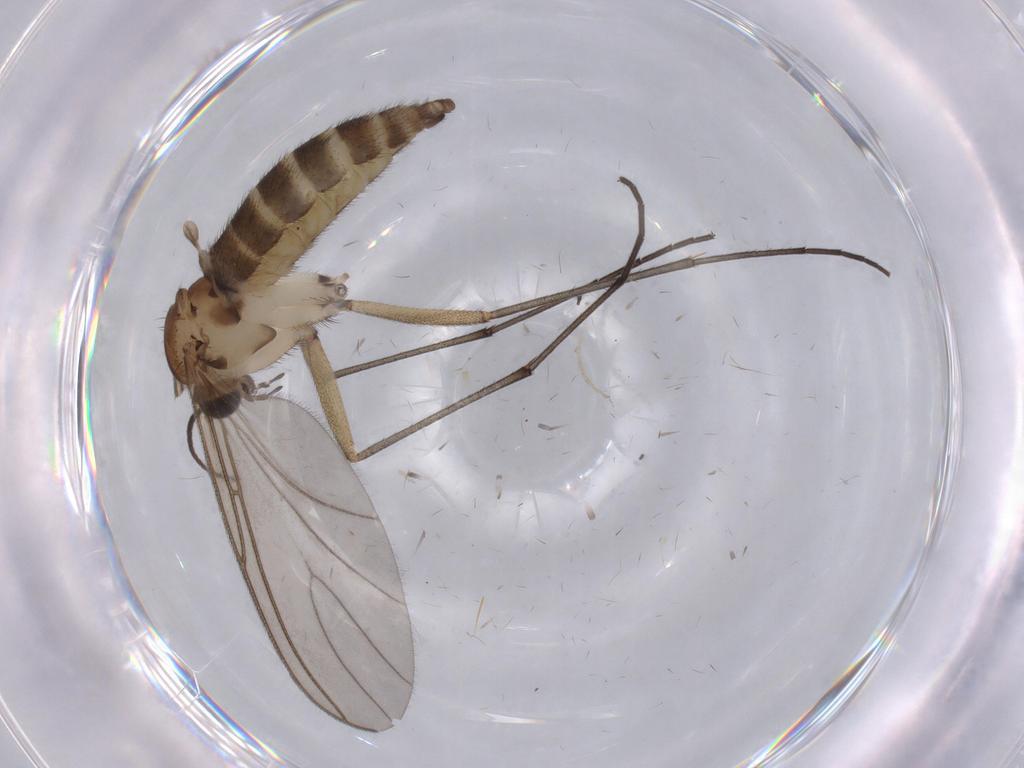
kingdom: Animalia
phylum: Arthropoda
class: Insecta
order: Diptera
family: Sciaridae
